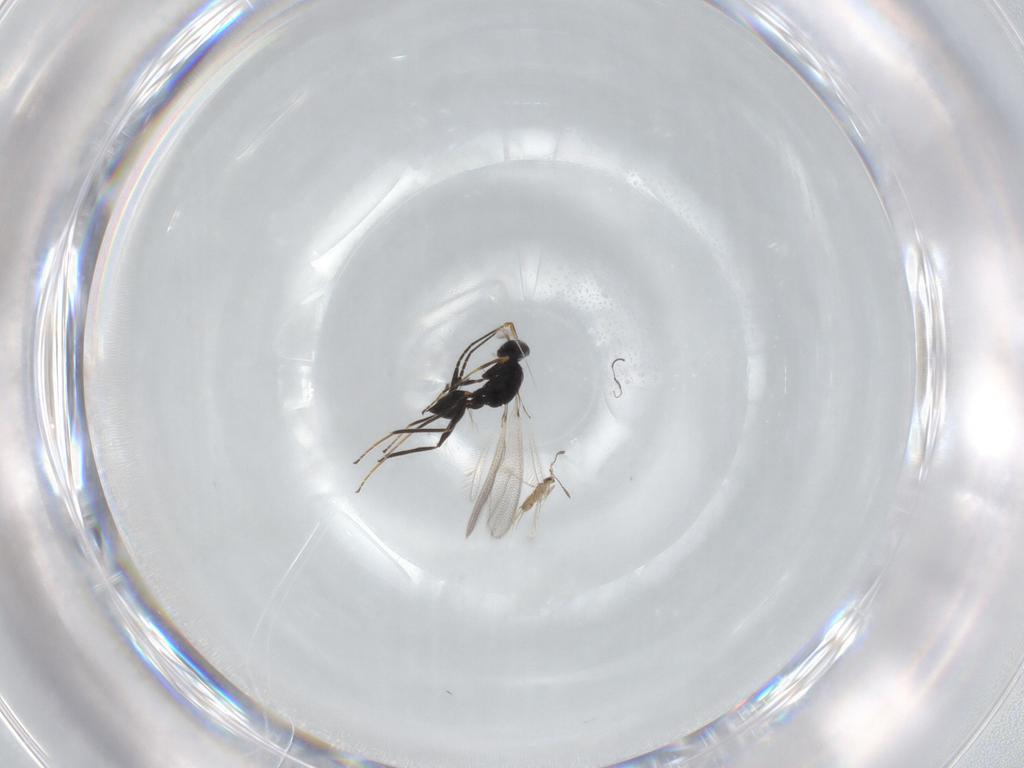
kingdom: Animalia
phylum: Arthropoda
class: Insecta
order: Hymenoptera
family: Mymaridae
